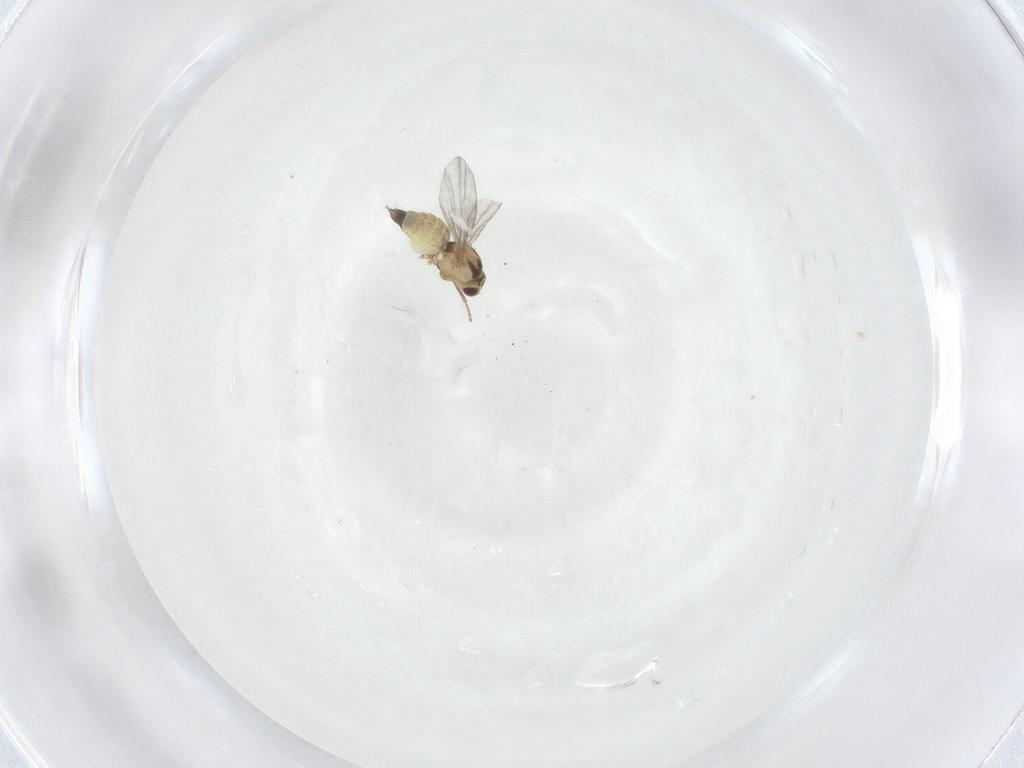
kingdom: Animalia
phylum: Arthropoda
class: Insecta
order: Diptera
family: Agromyzidae
